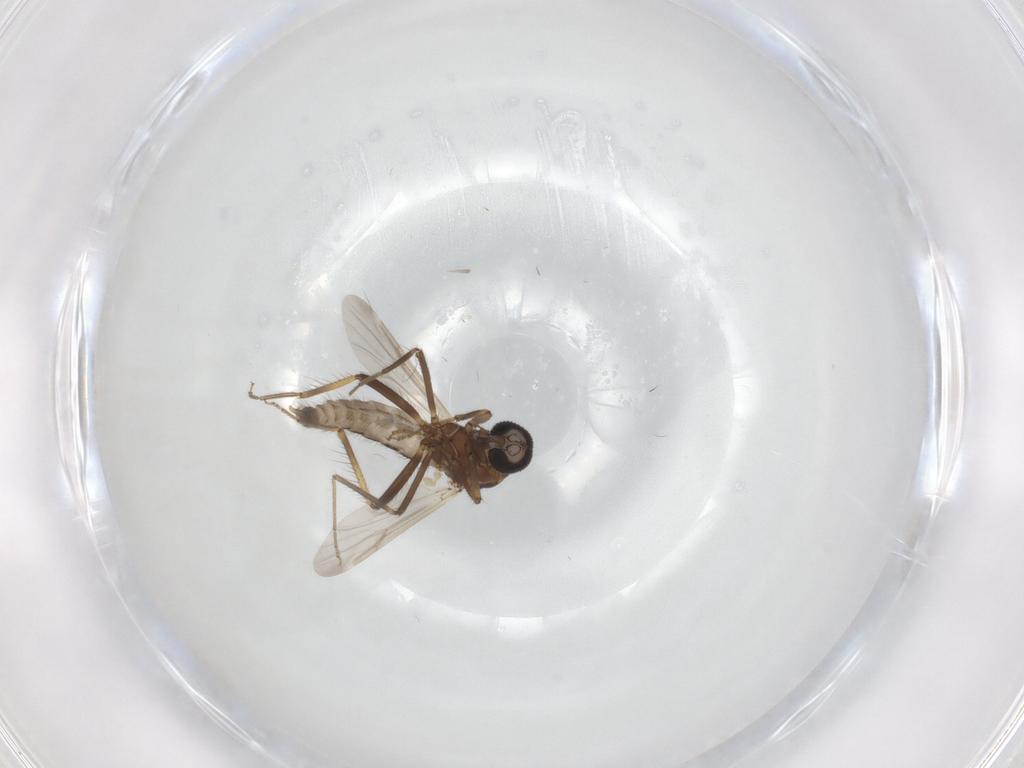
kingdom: Animalia
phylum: Arthropoda
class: Insecta
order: Diptera
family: Ceratopogonidae
